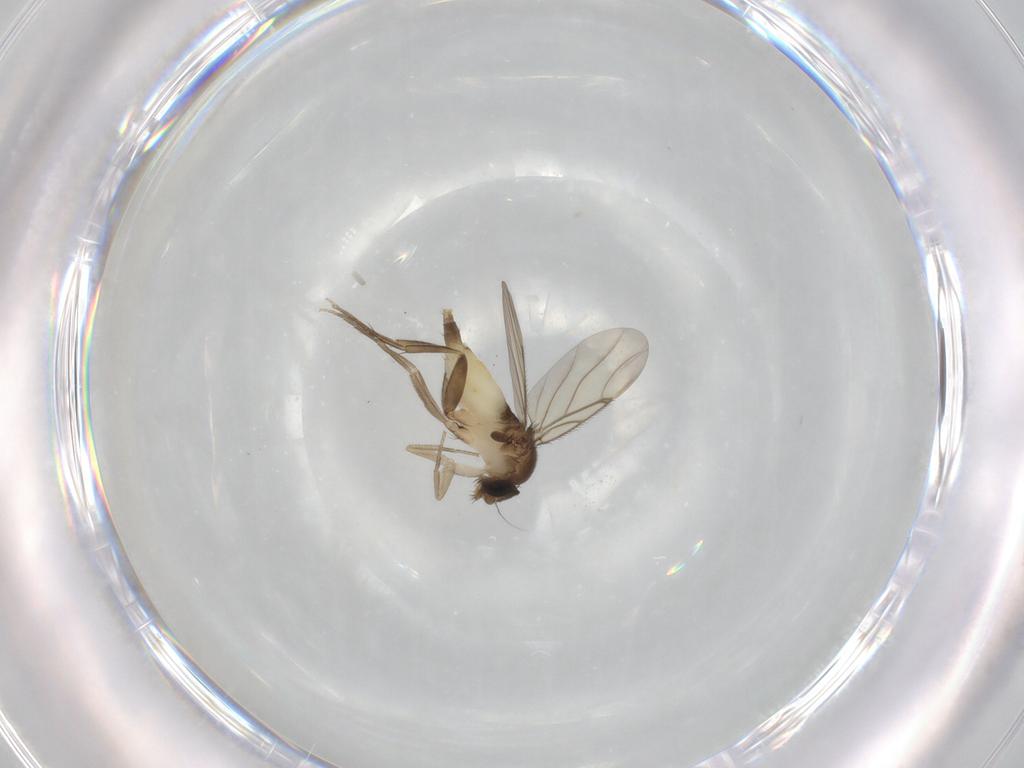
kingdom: Animalia
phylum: Arthropoda
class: Insecta
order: Diptera
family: Phoridae
